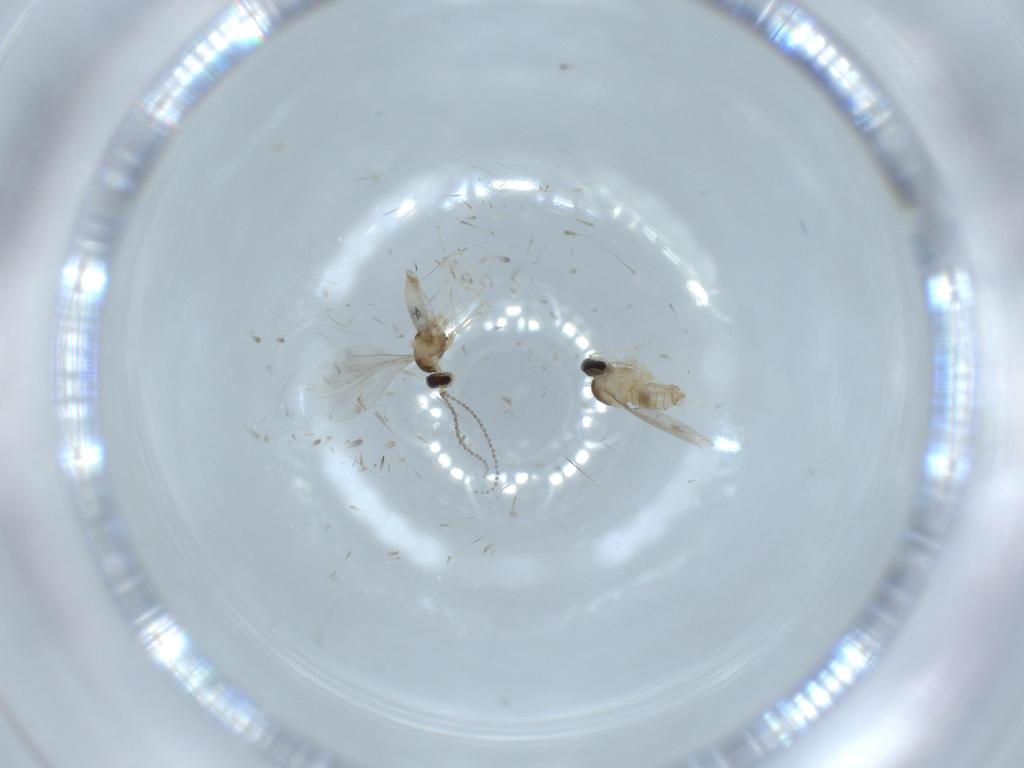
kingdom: Animalia
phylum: Arthropoda
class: Insecta
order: Diptera
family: Cecidomyiidae
